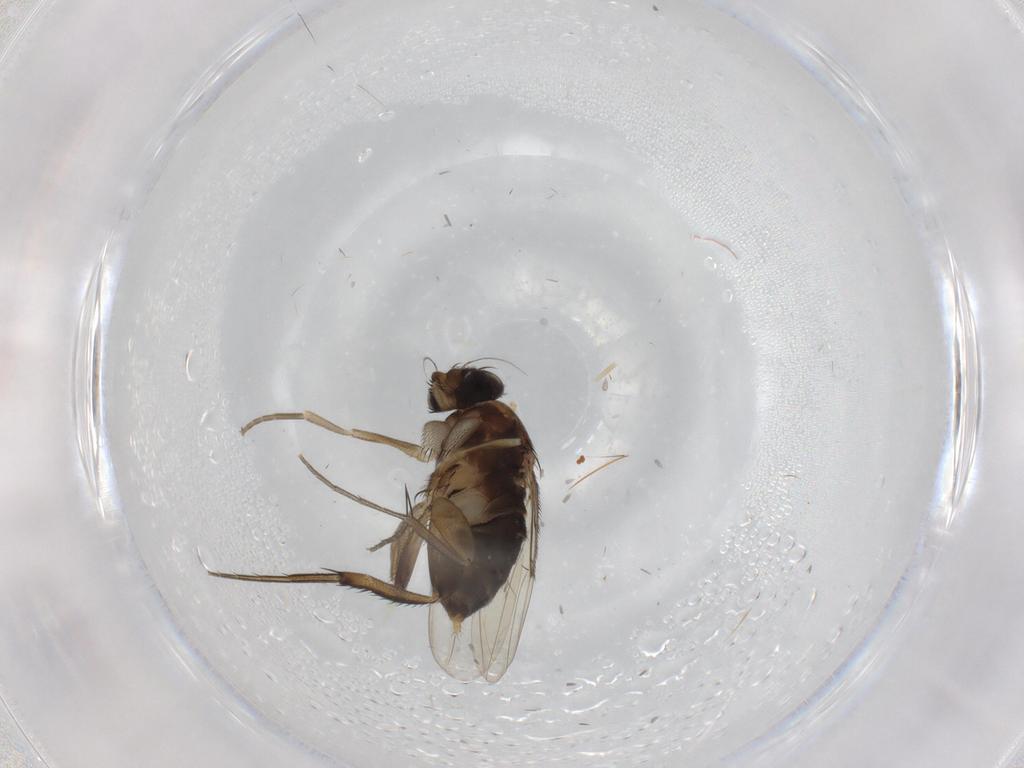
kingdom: Animalia
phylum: Arthropoda
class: Insecta
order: Diptera
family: Phoridae
